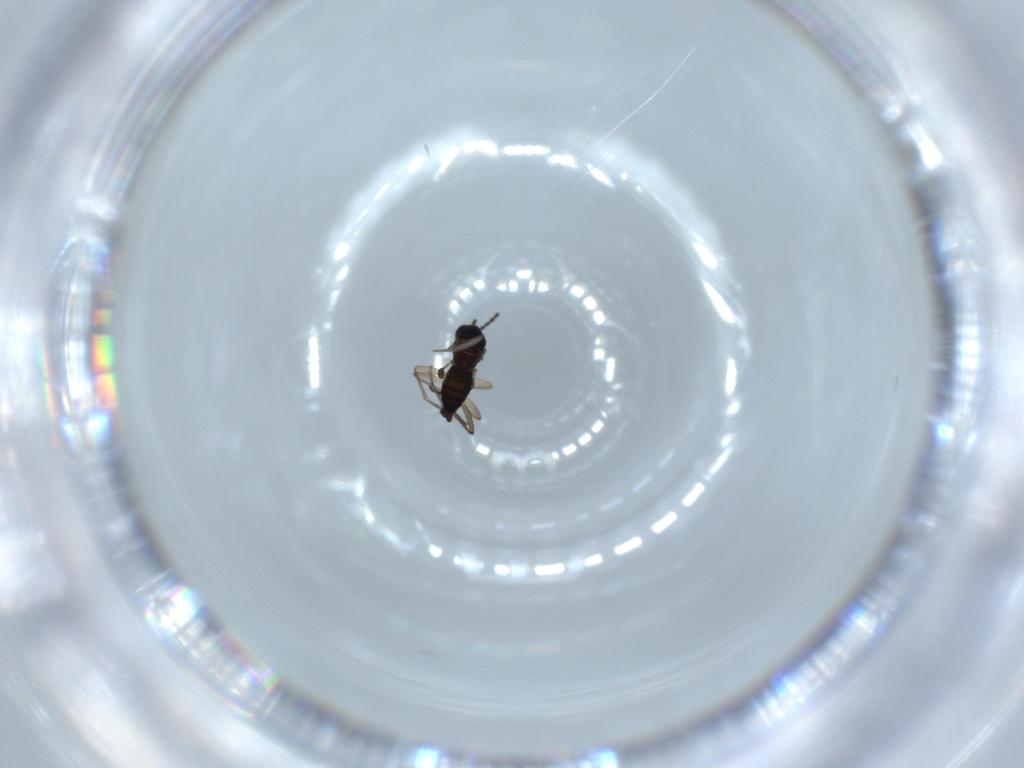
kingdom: Animalia
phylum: Arthropoda
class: Insecta
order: Diptera
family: Sciaridae
